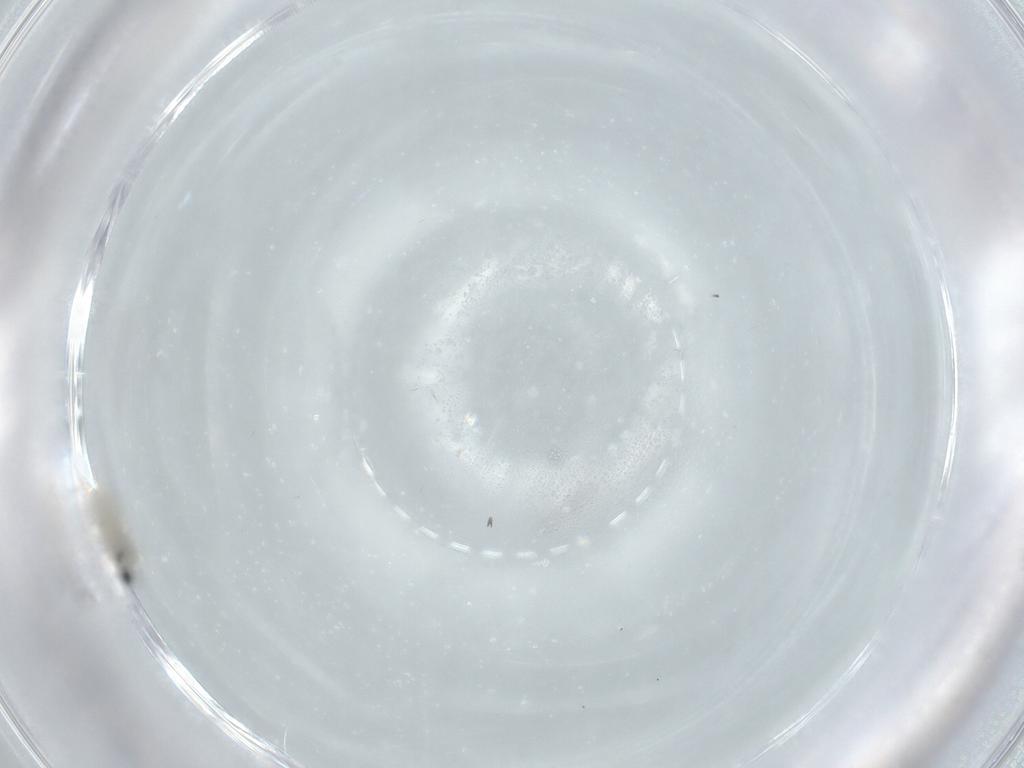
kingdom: Animalia
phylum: Arthropoda
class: Insecta
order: Diptera
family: Cecidomyiidae
